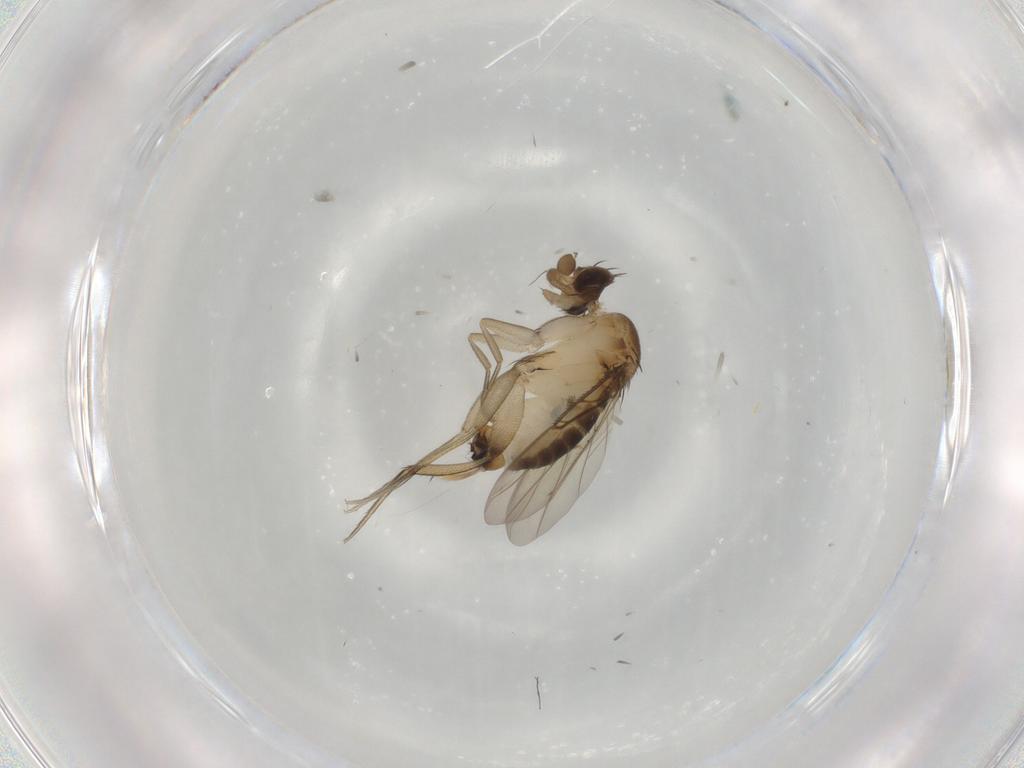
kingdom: Animalia
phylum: Arthropoda
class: Insecta
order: Diptera
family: Phoridae
